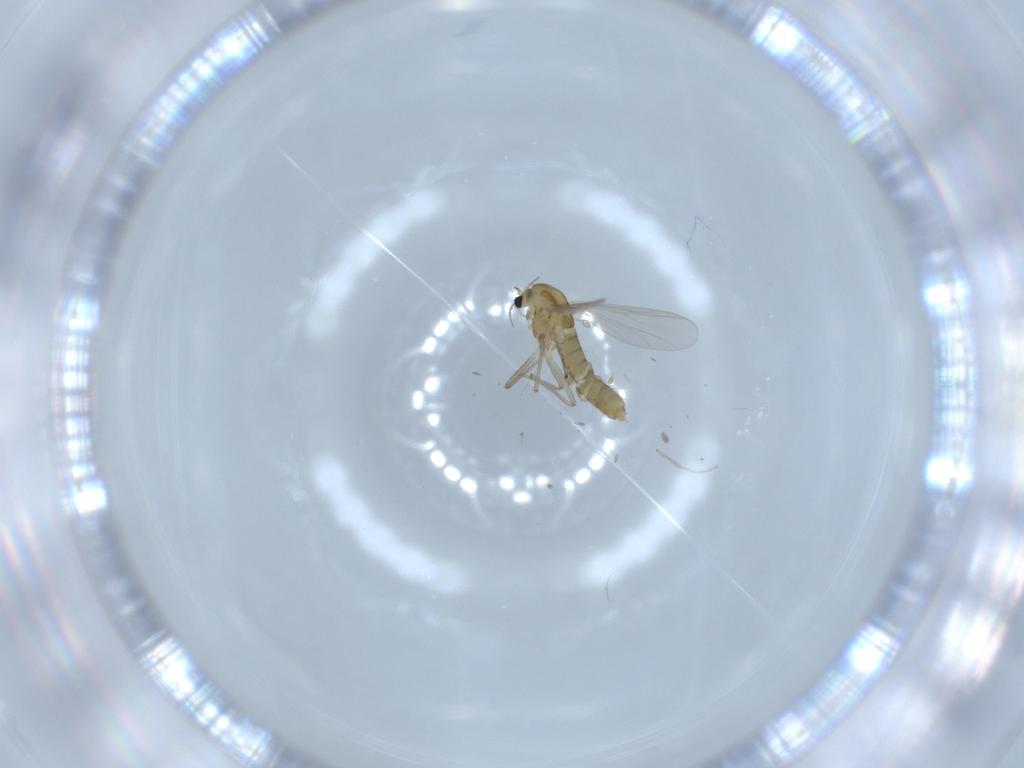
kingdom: Animalia
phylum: Arthropoda
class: Insecta
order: Diptera
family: Chironomidae
